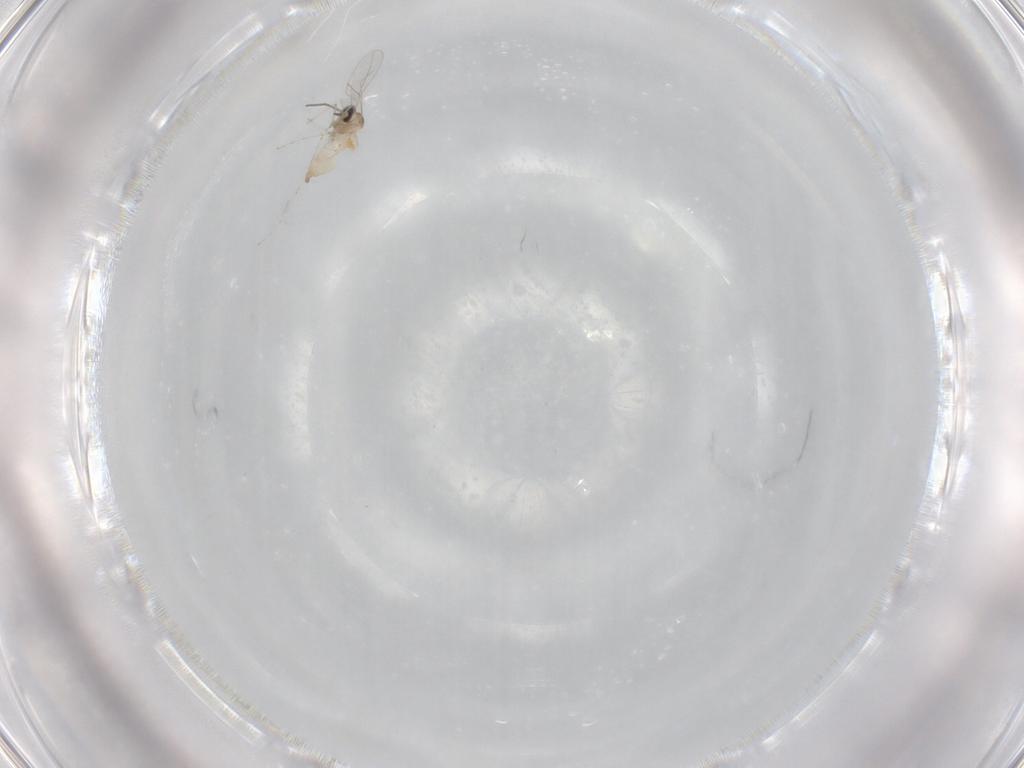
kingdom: Animalia
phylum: Arthropoda
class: Insecta
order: Diptera
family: Cecidomyiidae
